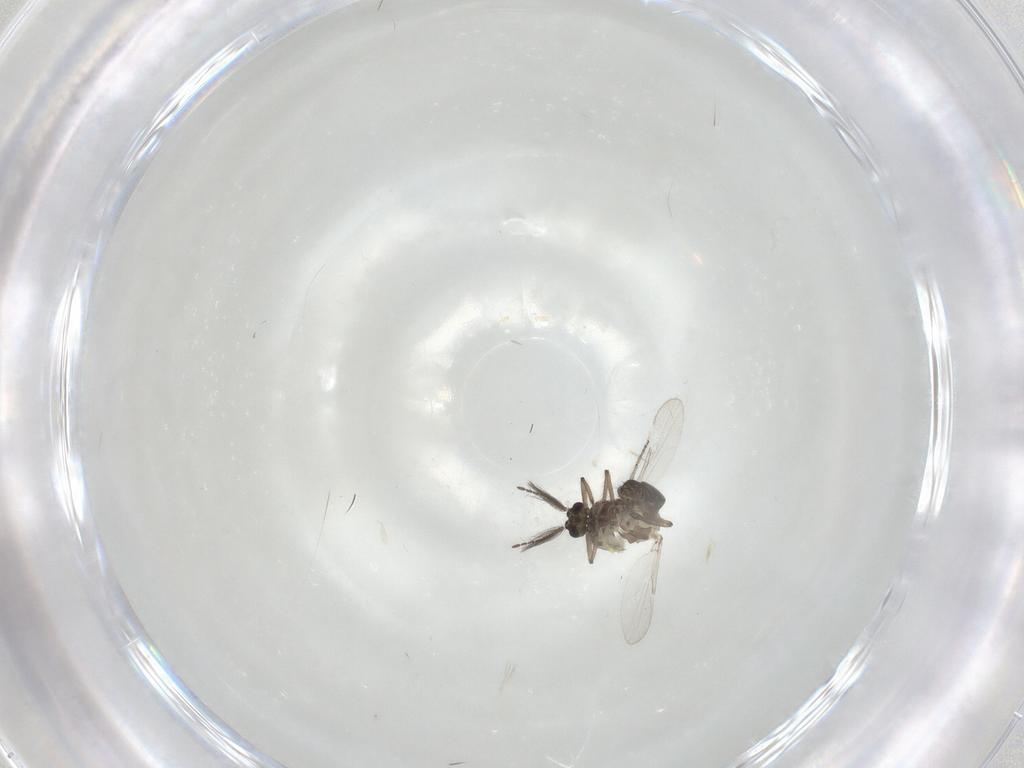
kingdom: Animalia
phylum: Arthropoda
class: Insecta
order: Diptera
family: Ceratopogonidae
